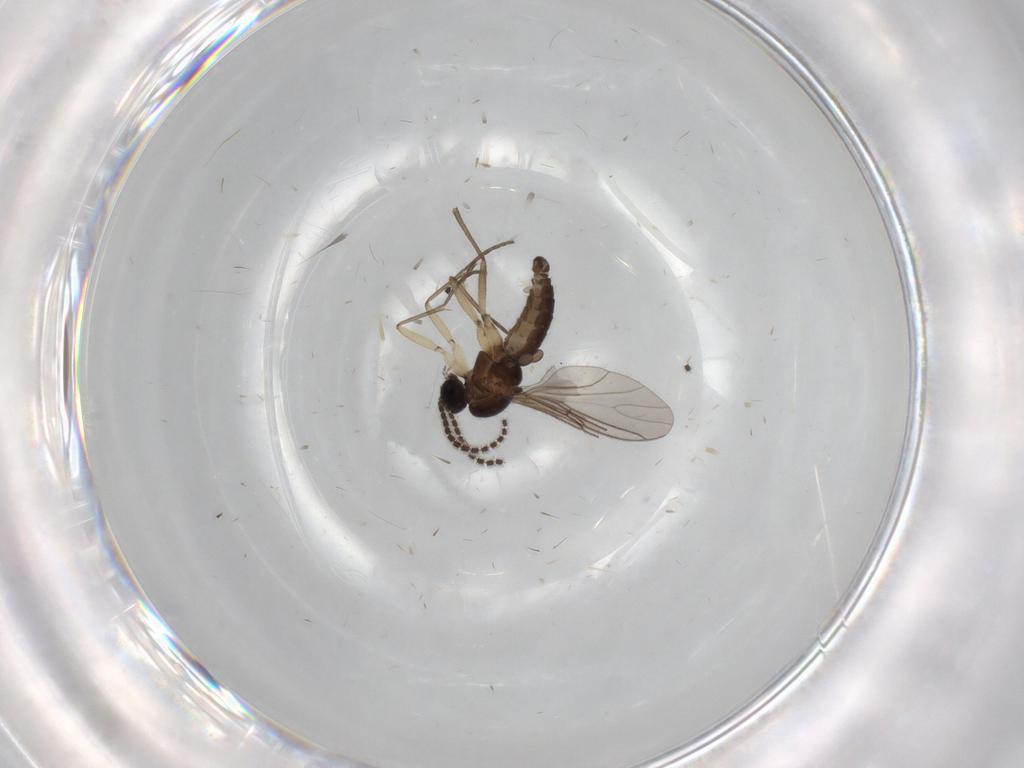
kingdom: Animalia
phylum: Arthropoda
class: Insecta
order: Diptera
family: Sciaridae
